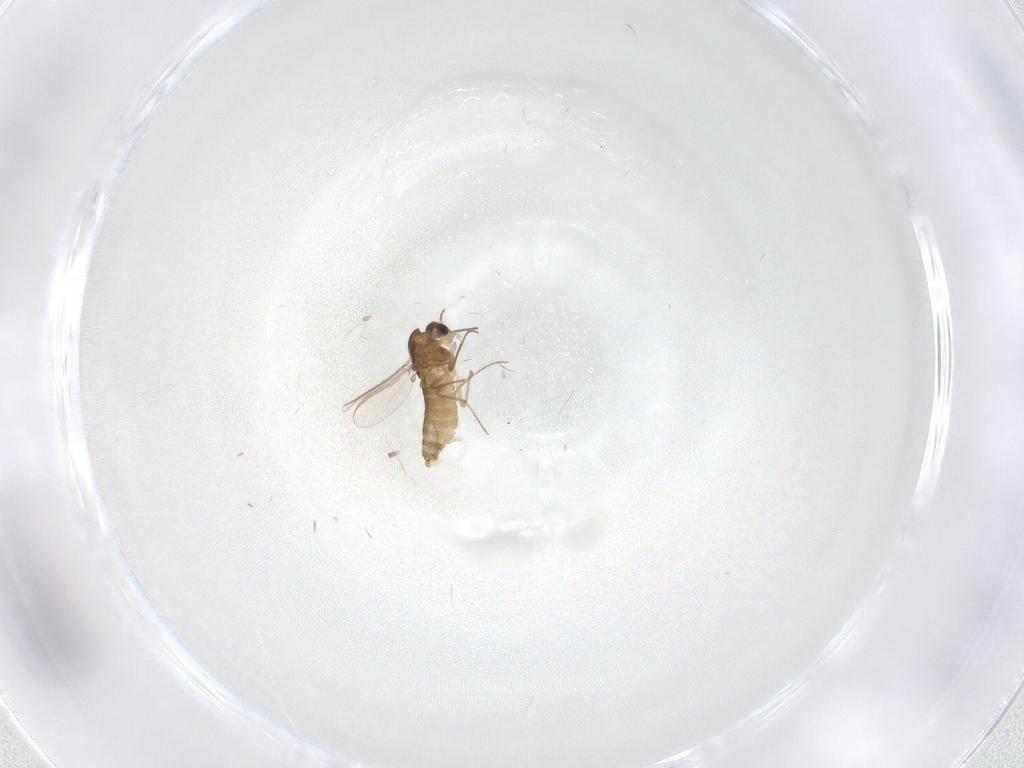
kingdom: Animalia
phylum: Arthropoda
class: Insecta
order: Diptera
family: Chironomidae
